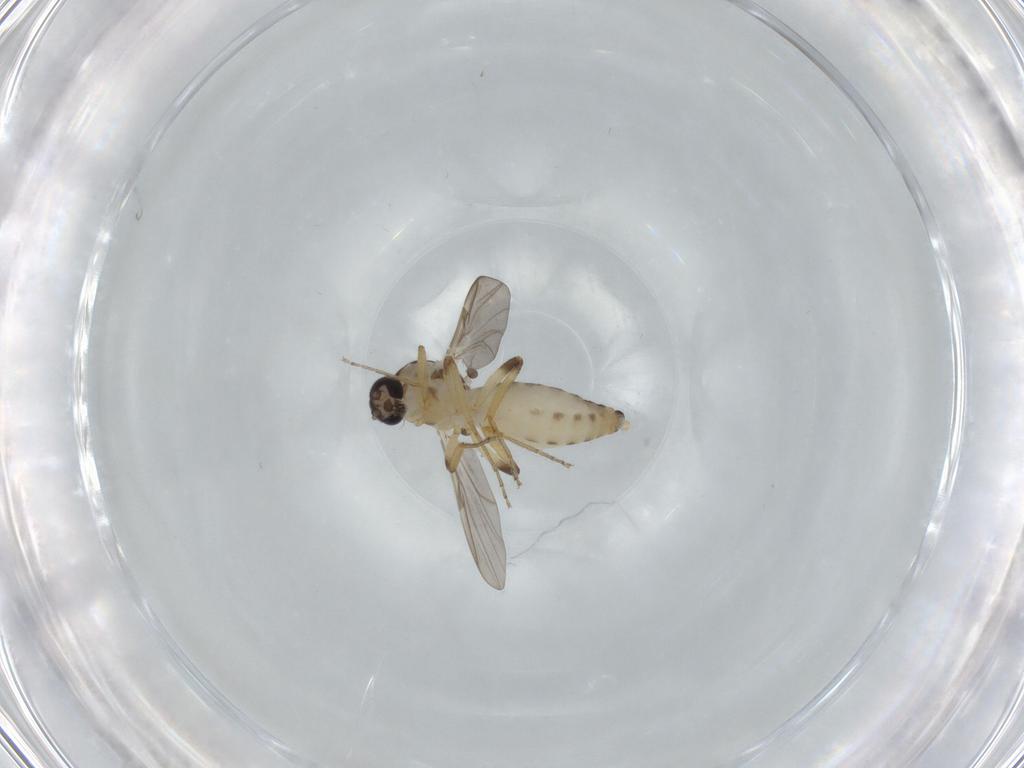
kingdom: Animalia
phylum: Arthropoda
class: Insecta
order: Diptera
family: Ceratopogonidae
